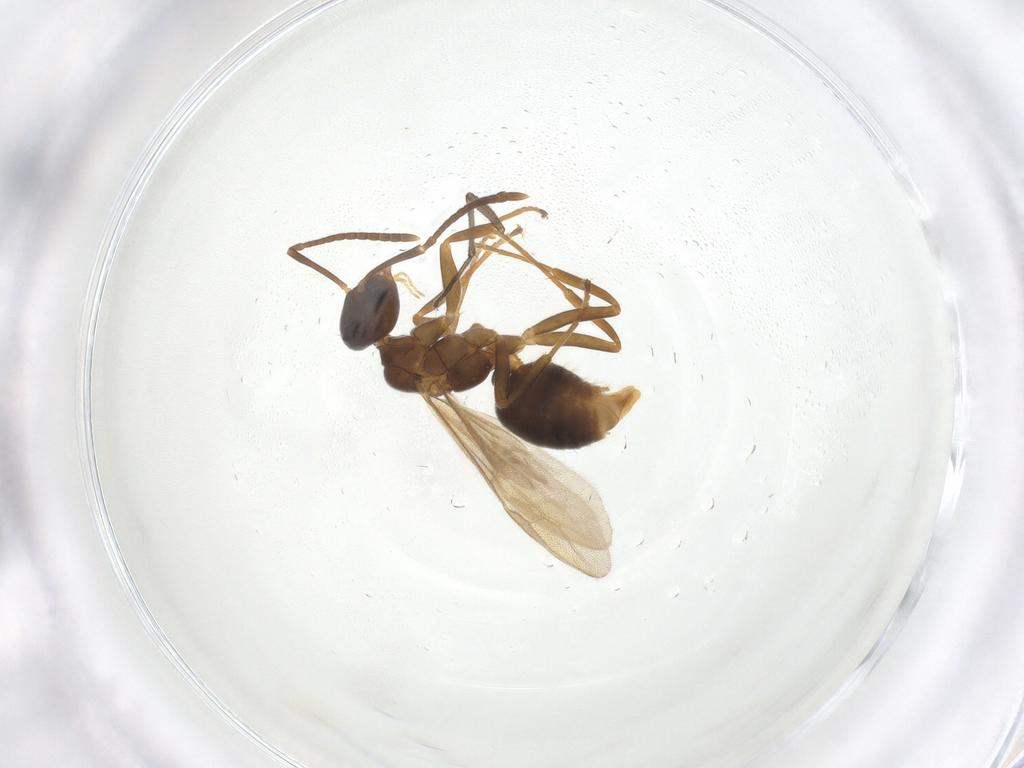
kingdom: Animalia
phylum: Arthropoda
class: Insecta
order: Hymenoptera
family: Formicidae
